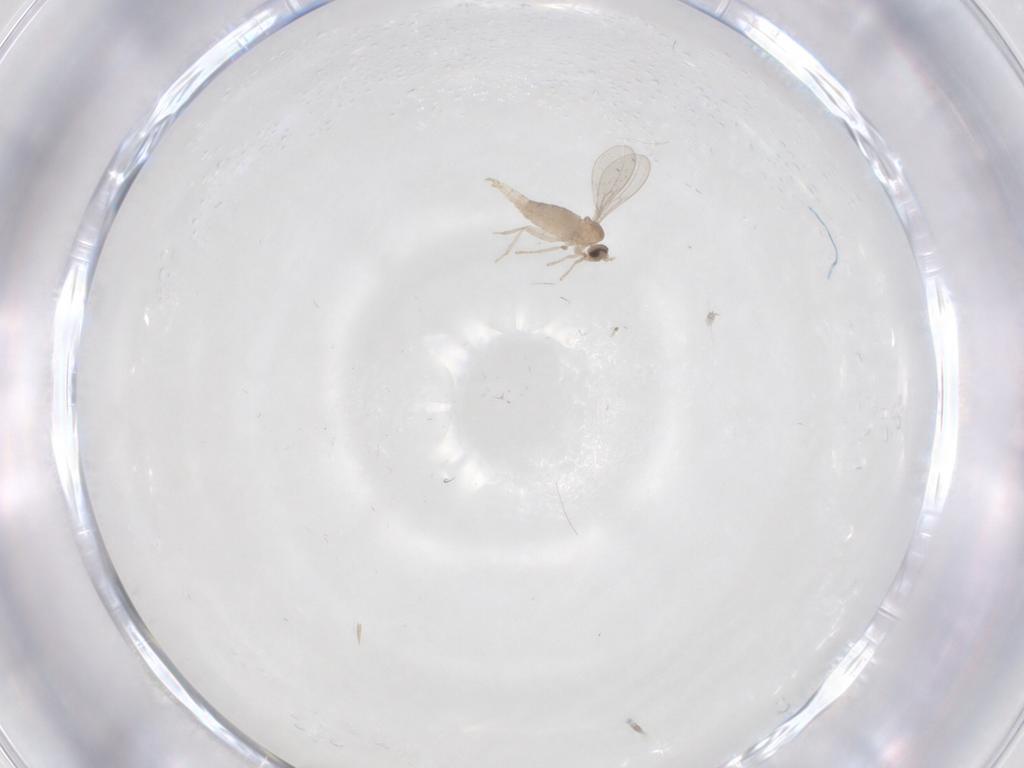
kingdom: Animalia
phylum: Arthropoda
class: Insecta
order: Diptera
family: Cecidomyiidae
